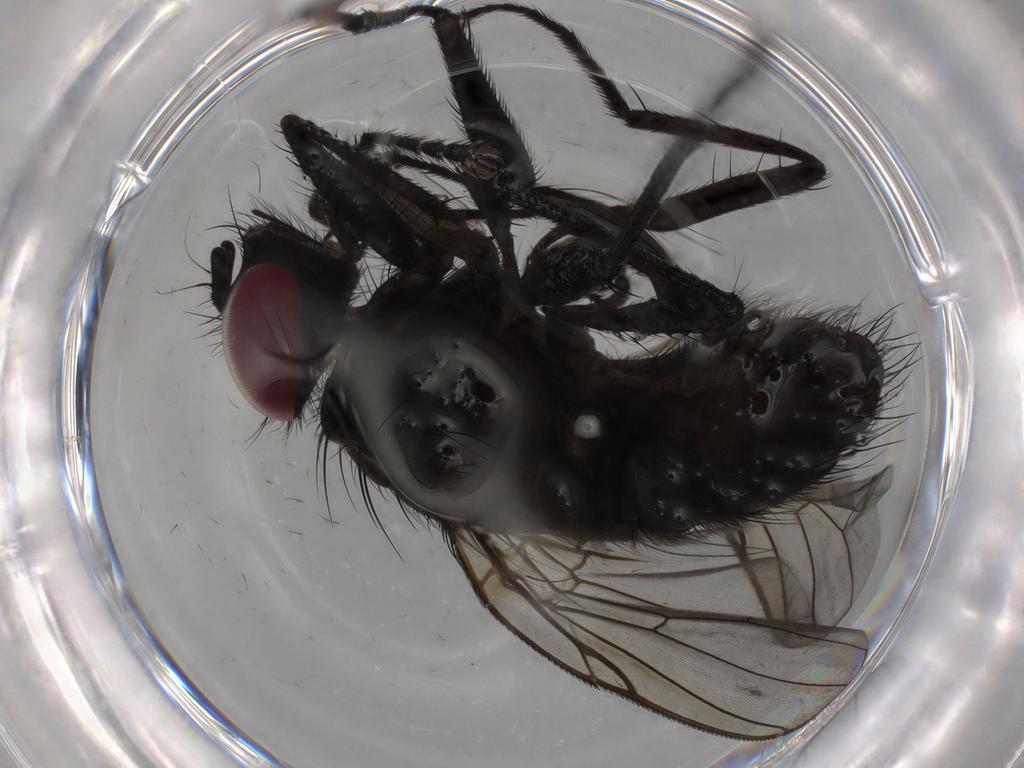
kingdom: Animalia
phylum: Arthropoda
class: Insecta
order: Diptera
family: Muscidae
